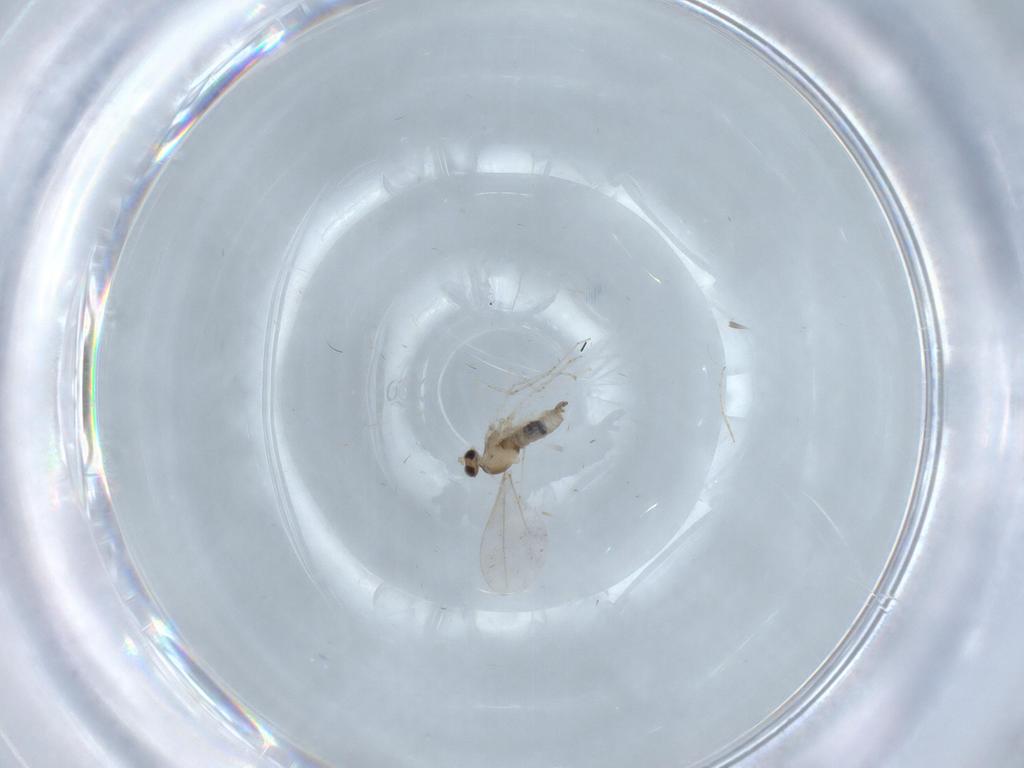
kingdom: Animalia
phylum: Arthropoda
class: Insecta
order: Diptera
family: Cecidomyiidae
